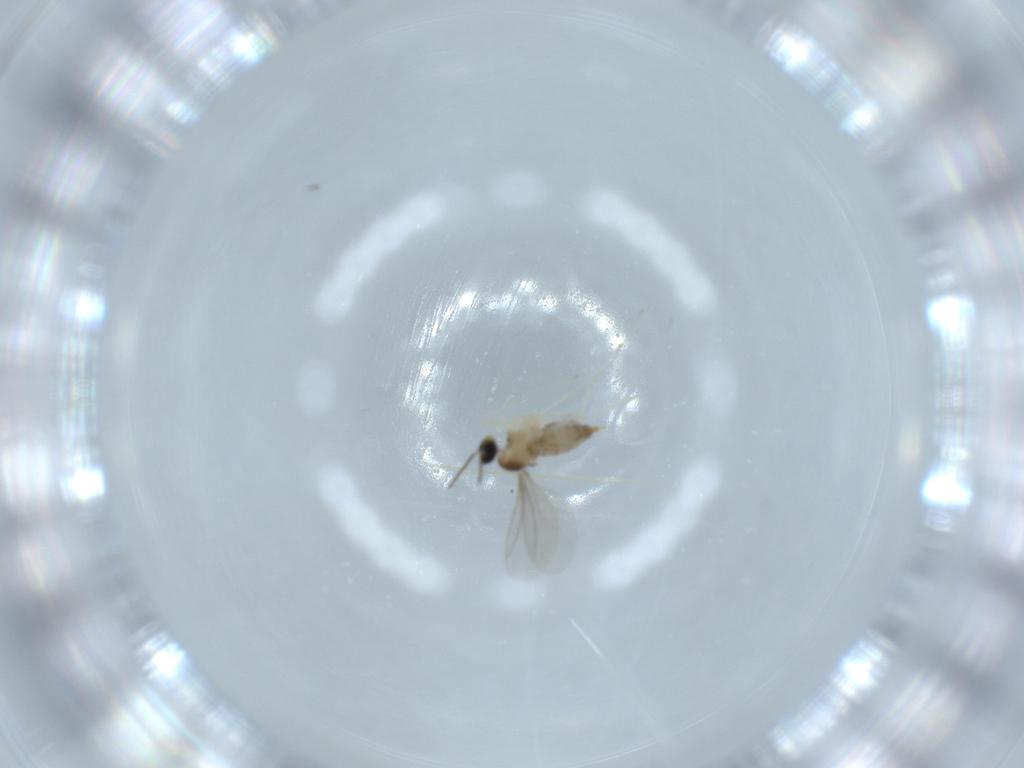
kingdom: Animalia
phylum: Arthropoda
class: Insecta
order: Diptera
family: Cecidomyiidae
